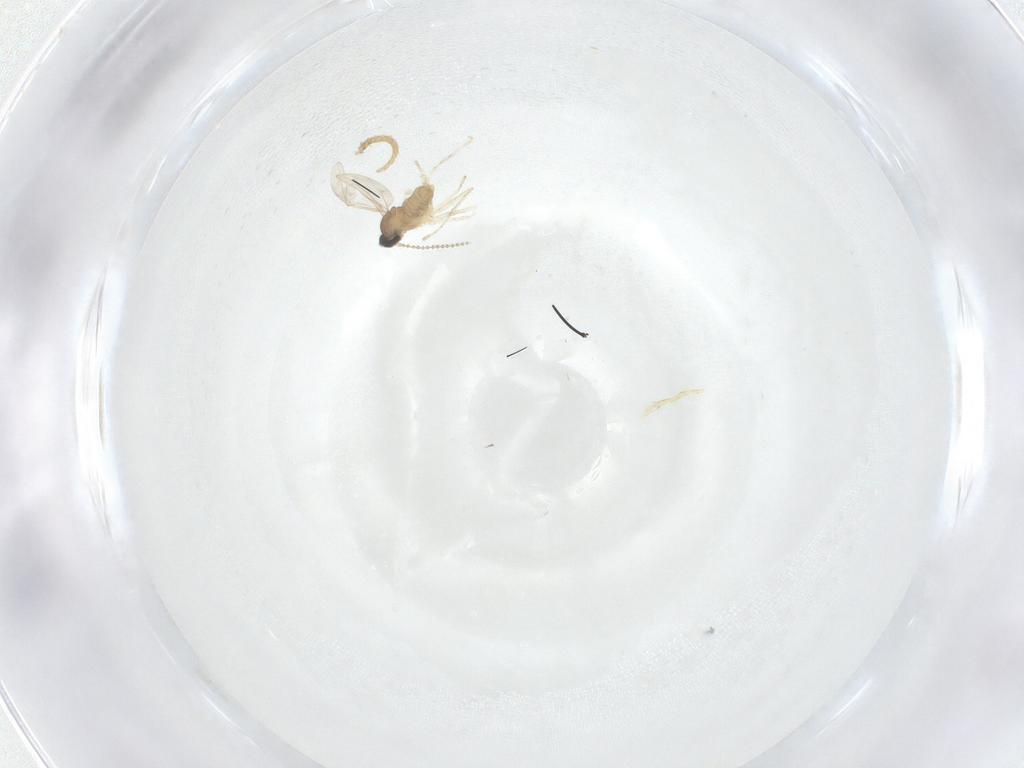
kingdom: Animalia
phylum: Arthropoda
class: Insecta
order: Diptera
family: Cecidomyiidae
